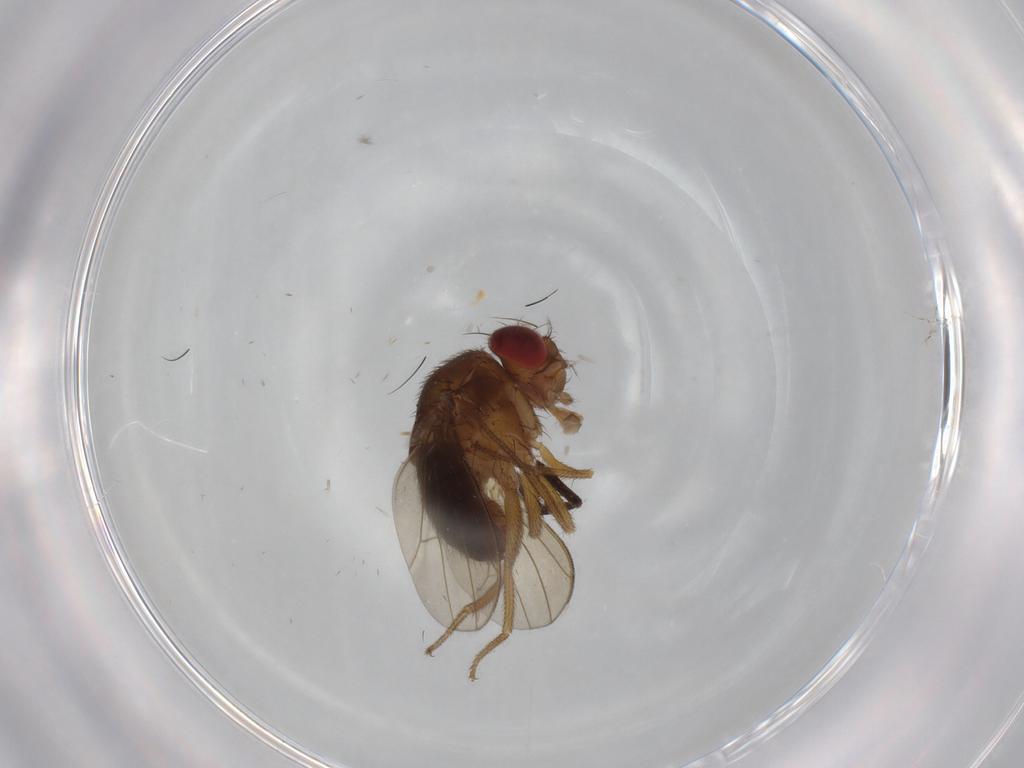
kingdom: Animalia
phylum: Arthropoda
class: Insecta
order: Diptera
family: Drosophilidae
